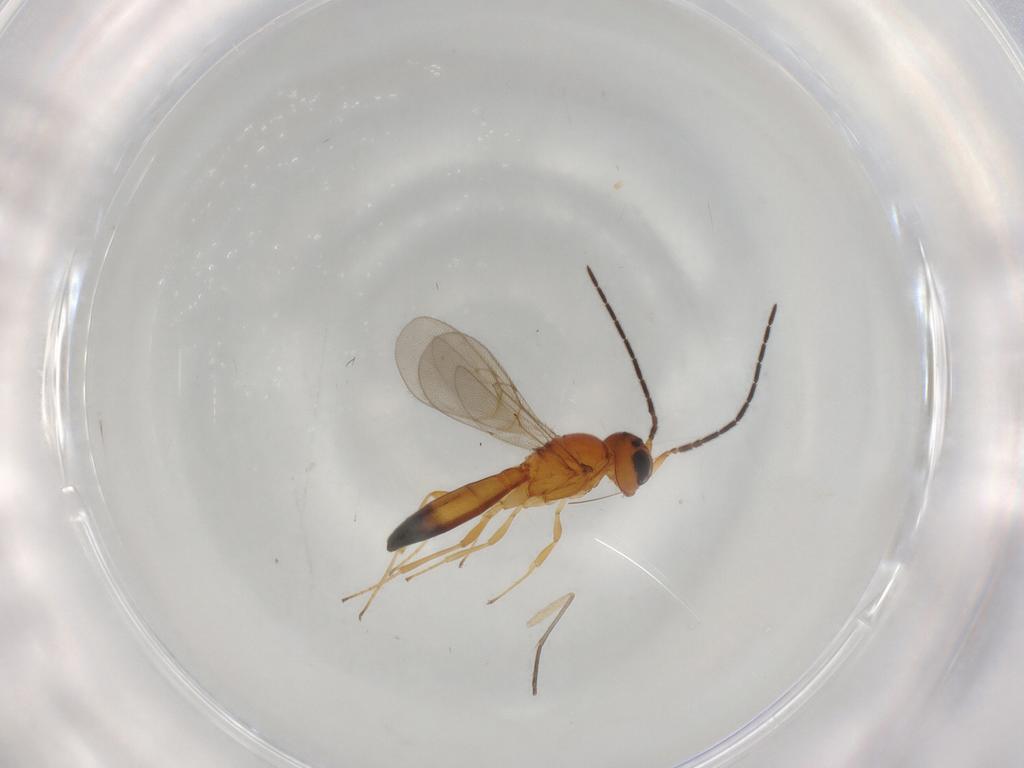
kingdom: Animalia
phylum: Arthropoda
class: Insecta
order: Hymenoptera
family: Scelionidae
